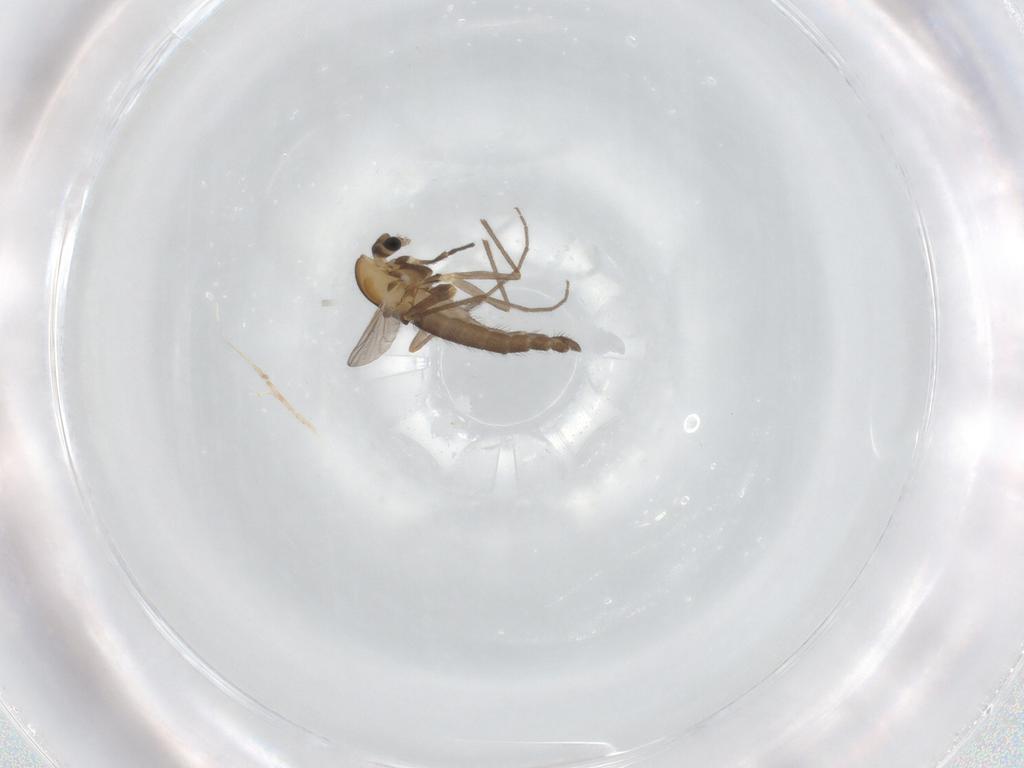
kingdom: Animalia
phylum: Arthropoda
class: Insecta
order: Diptera
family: Chironomidae
